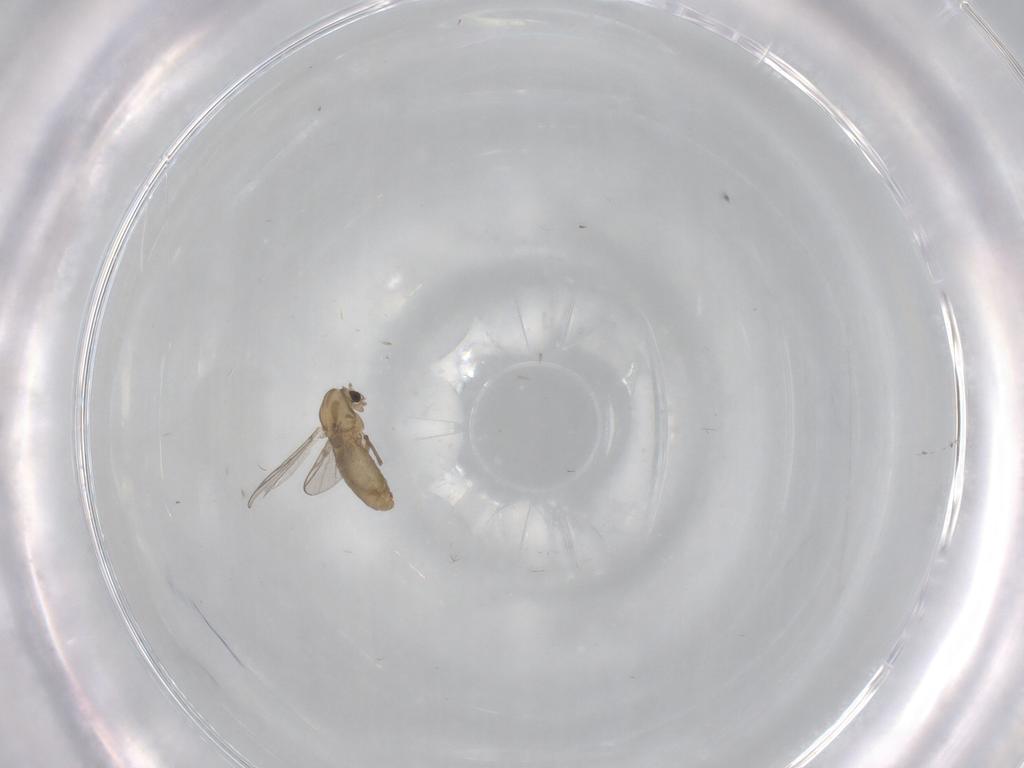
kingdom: Animalia
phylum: Arthropoda
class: Insecta
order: Diptera
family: Chironomidae
